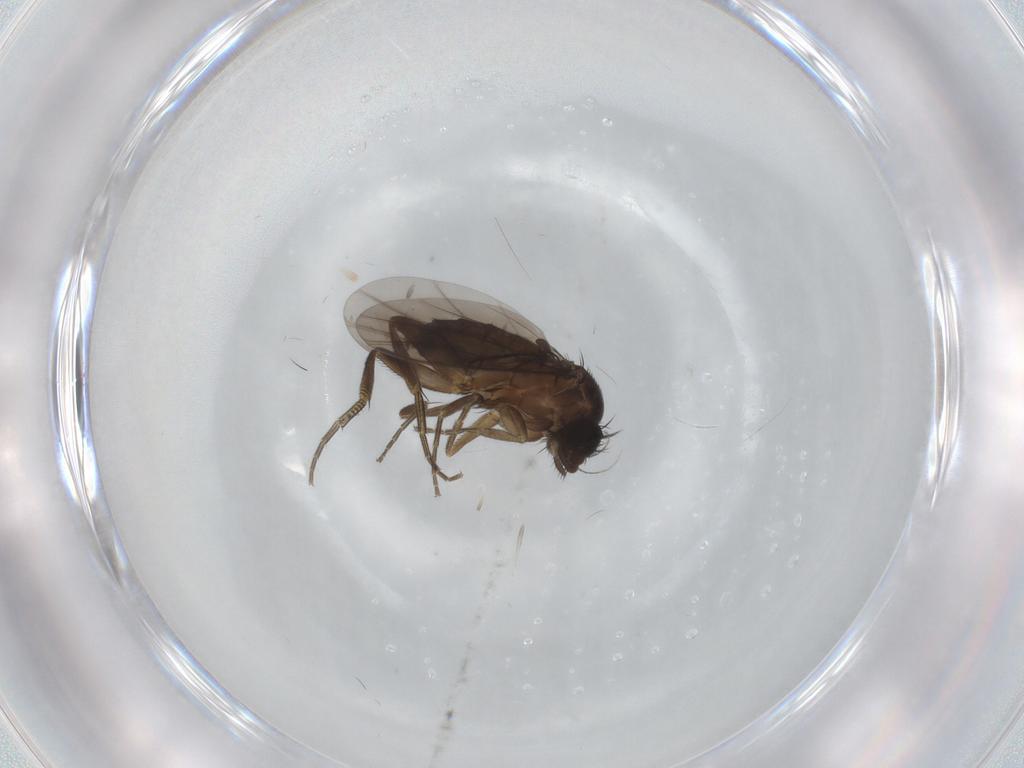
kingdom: Animalia
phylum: Arthropoda
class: Insecta
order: Diptera
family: Phoridae
